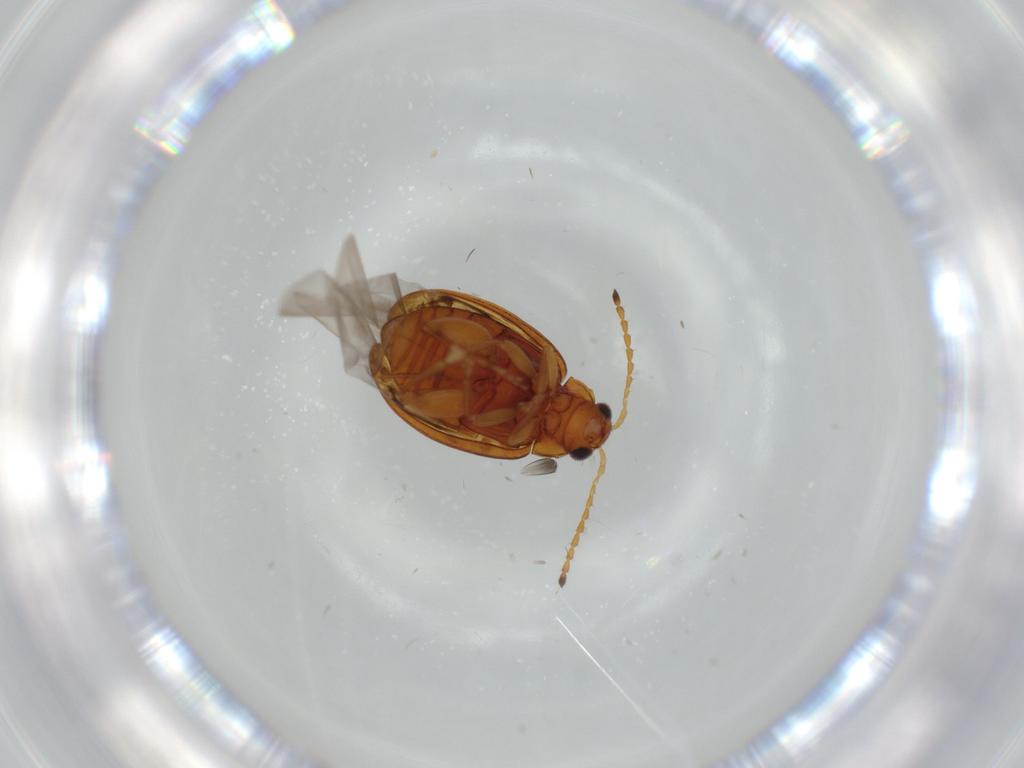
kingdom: Animalia
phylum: Arthropoda
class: Insecta
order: Coleoptera
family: Chrysomelidae
